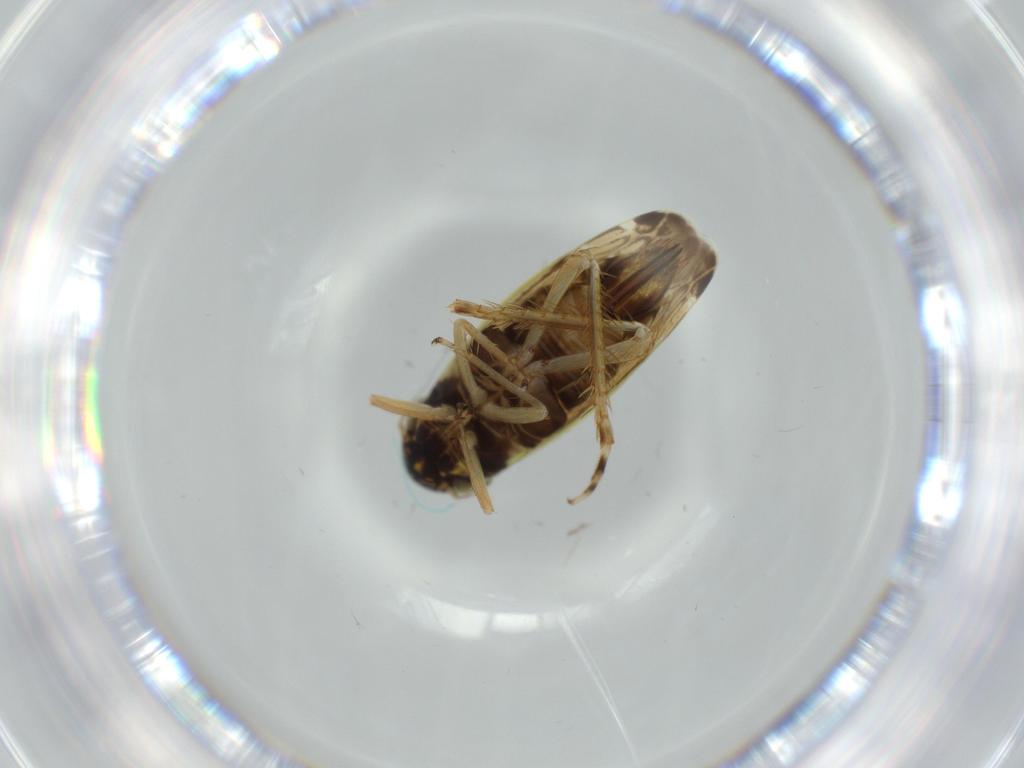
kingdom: Animalia
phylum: Arthropoda
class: Insecta
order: Hemiptera
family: Cicadellidae
